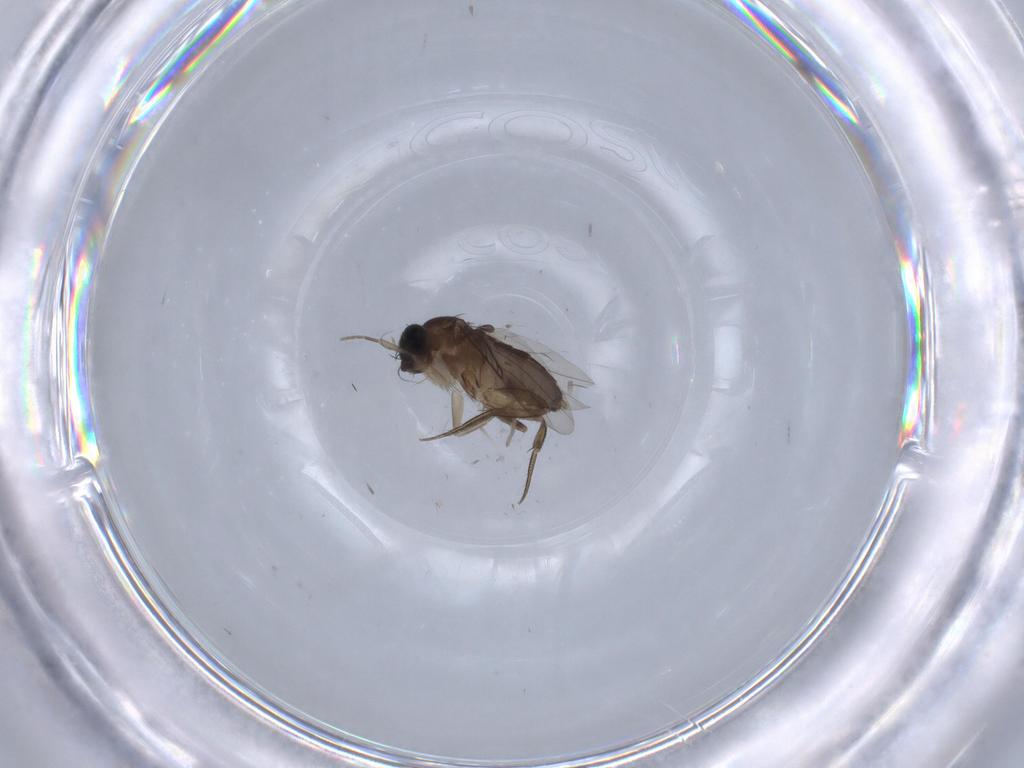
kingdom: Animalia
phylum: Arthropoda
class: Insecta
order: Diptera
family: Phoridae
